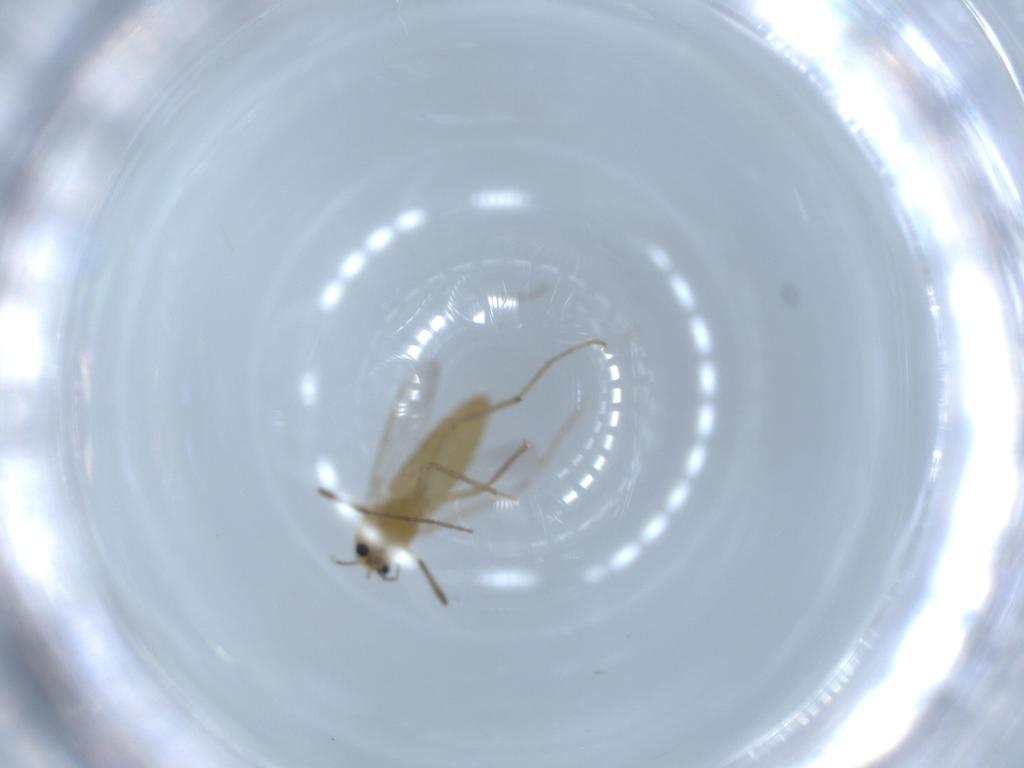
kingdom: Animalia
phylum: Arthropoda
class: Insecta
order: Diptera
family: Chironomidae
